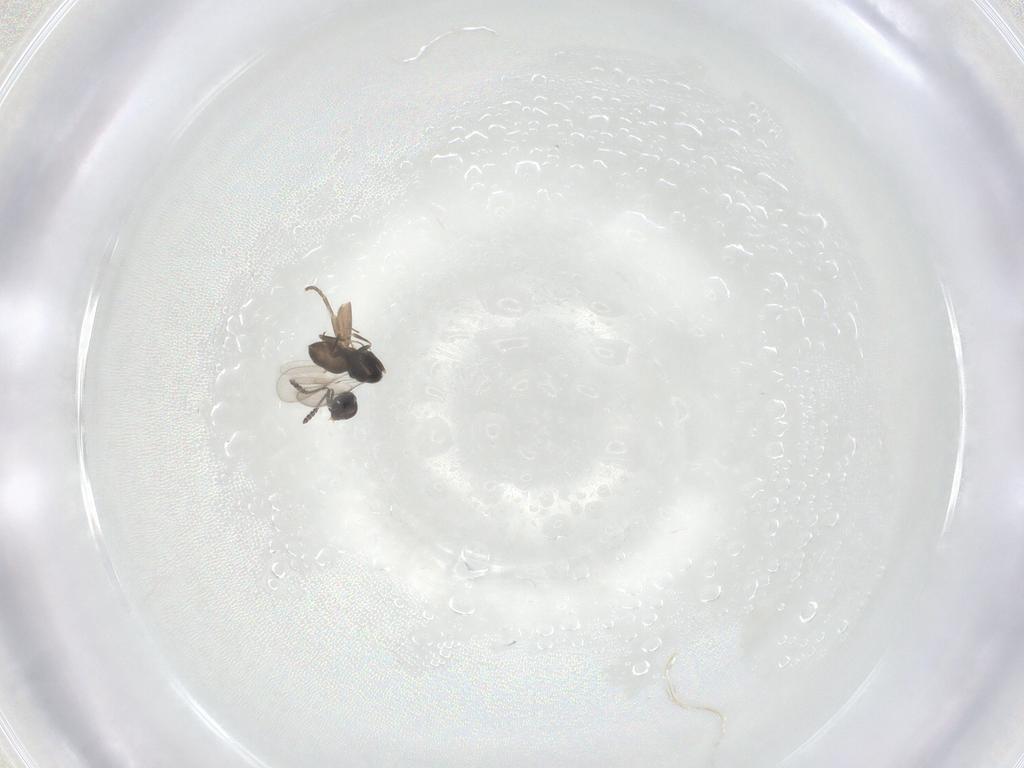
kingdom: Animalia
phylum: Arthropoda
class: Insecta
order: Hymenoptera
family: Scelionidae
